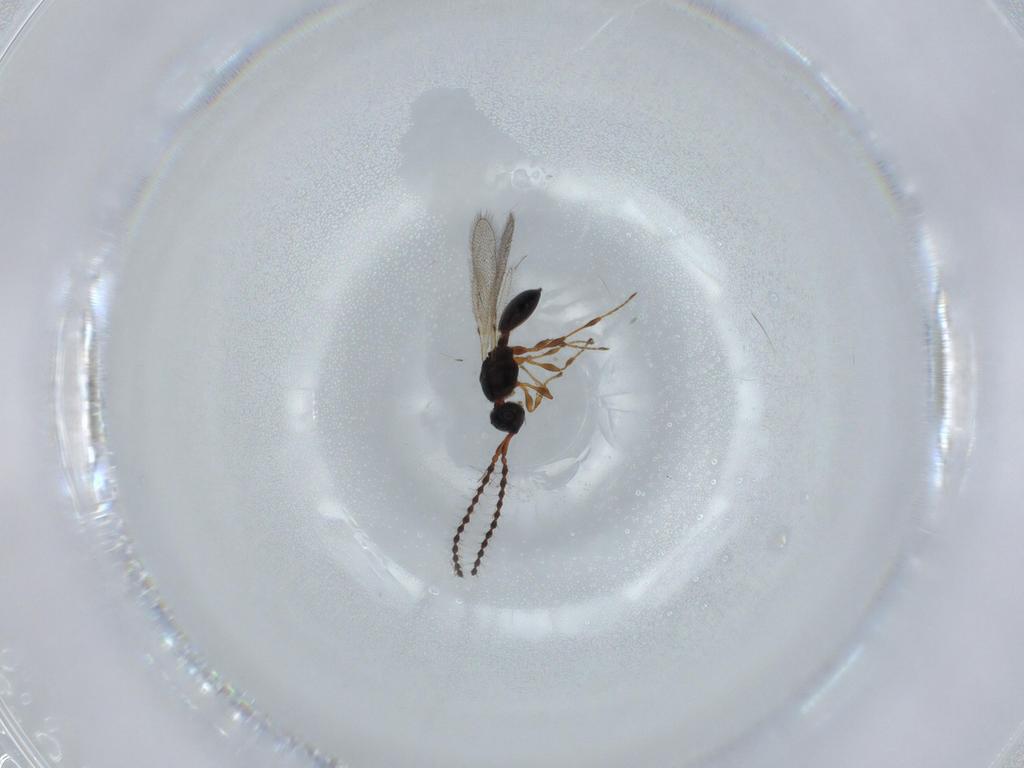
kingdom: Animalia
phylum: Arthropoda
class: Insecta
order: Hymenoptera
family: Diapriidae
